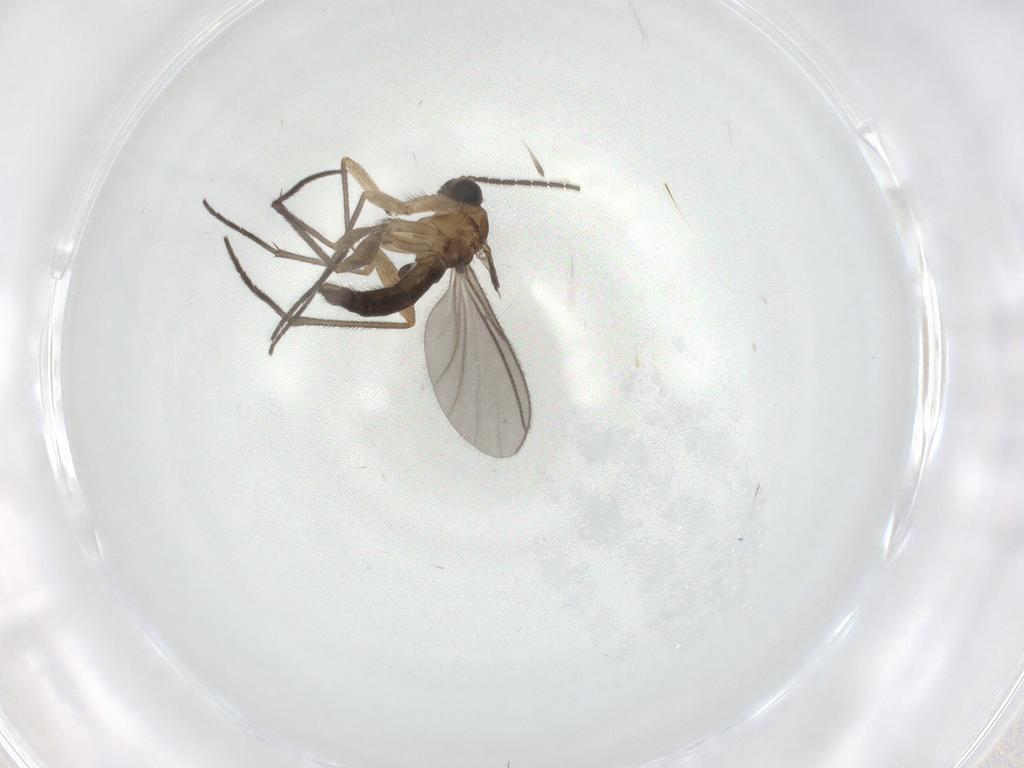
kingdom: Animalia
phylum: Arthropoda
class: Insecta
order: Diptera
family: Sciaridae
